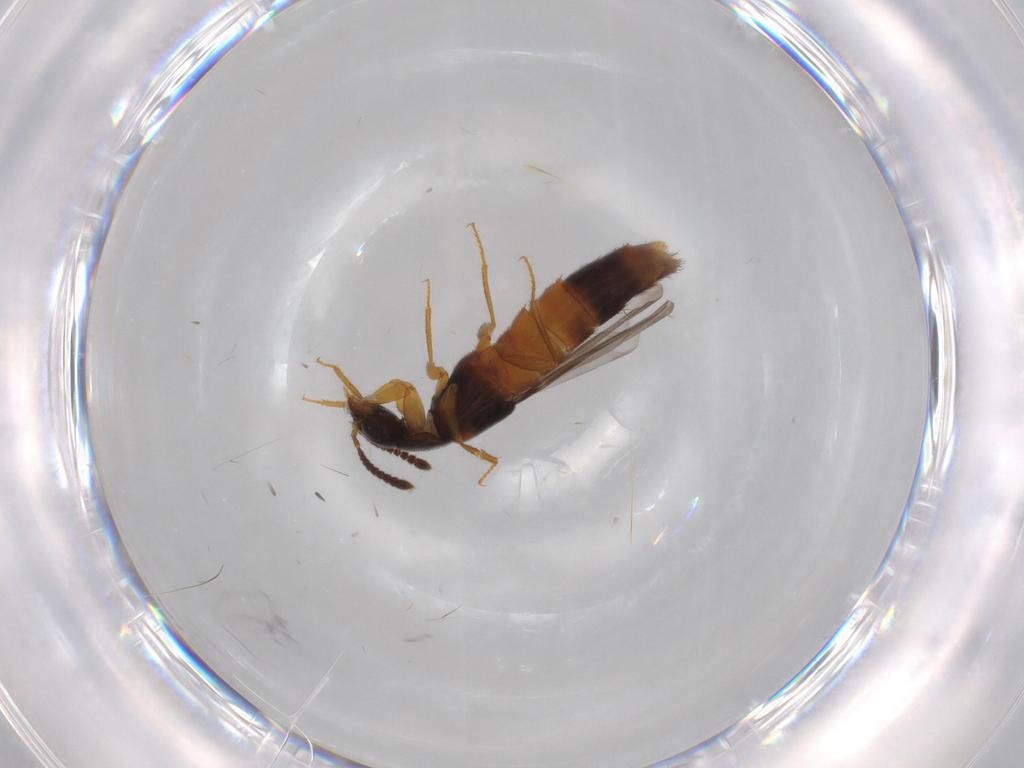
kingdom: Animalia
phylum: Arthropoda
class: Insecta
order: Coleoptera
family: Staphylinidae
